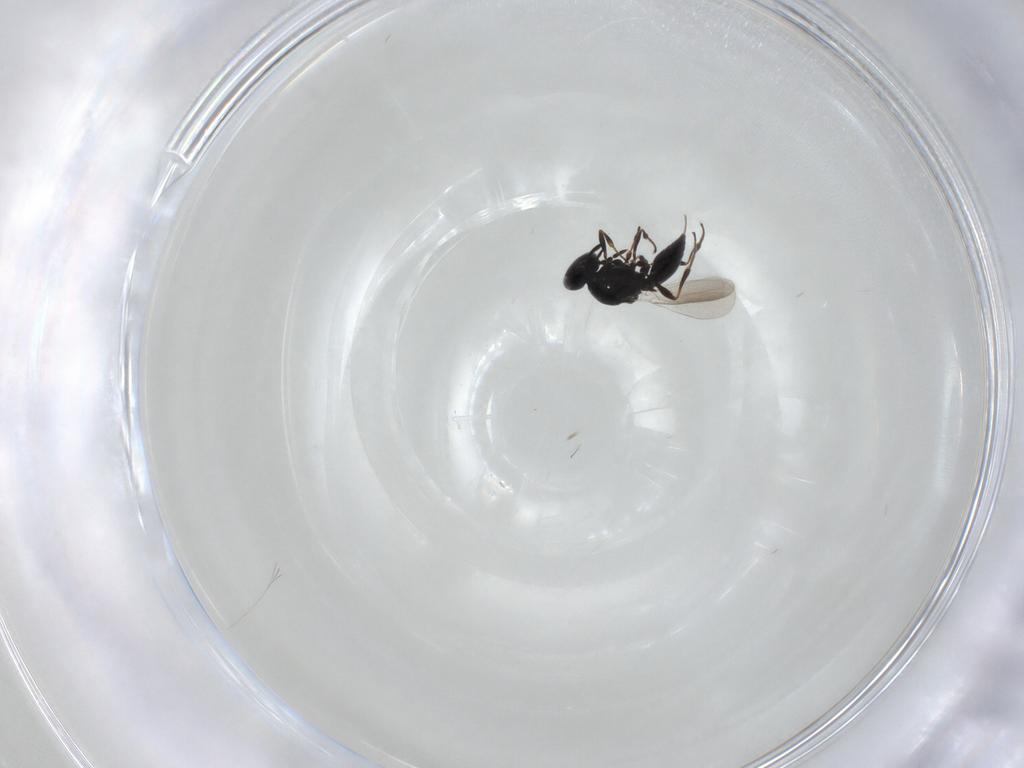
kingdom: Animalia
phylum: Arthropoda
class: Insecta
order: Hymenoptera
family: Platygastridae
